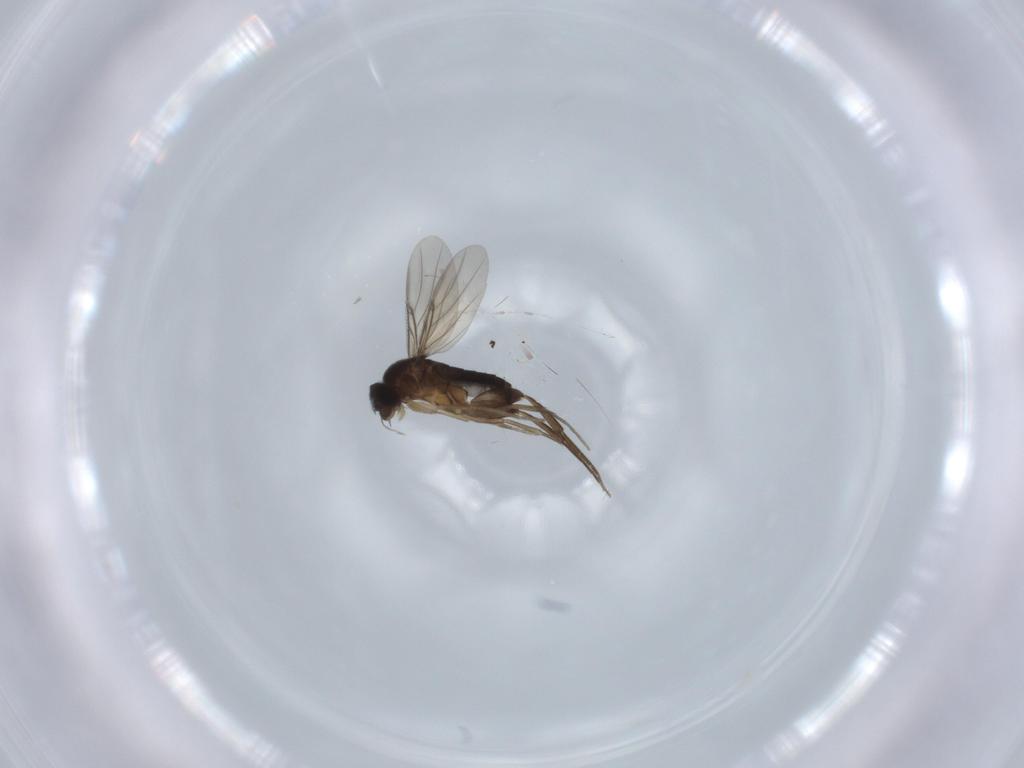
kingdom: Animalia
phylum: Arthropoda
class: Insecta
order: Diptera
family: Phoridae
